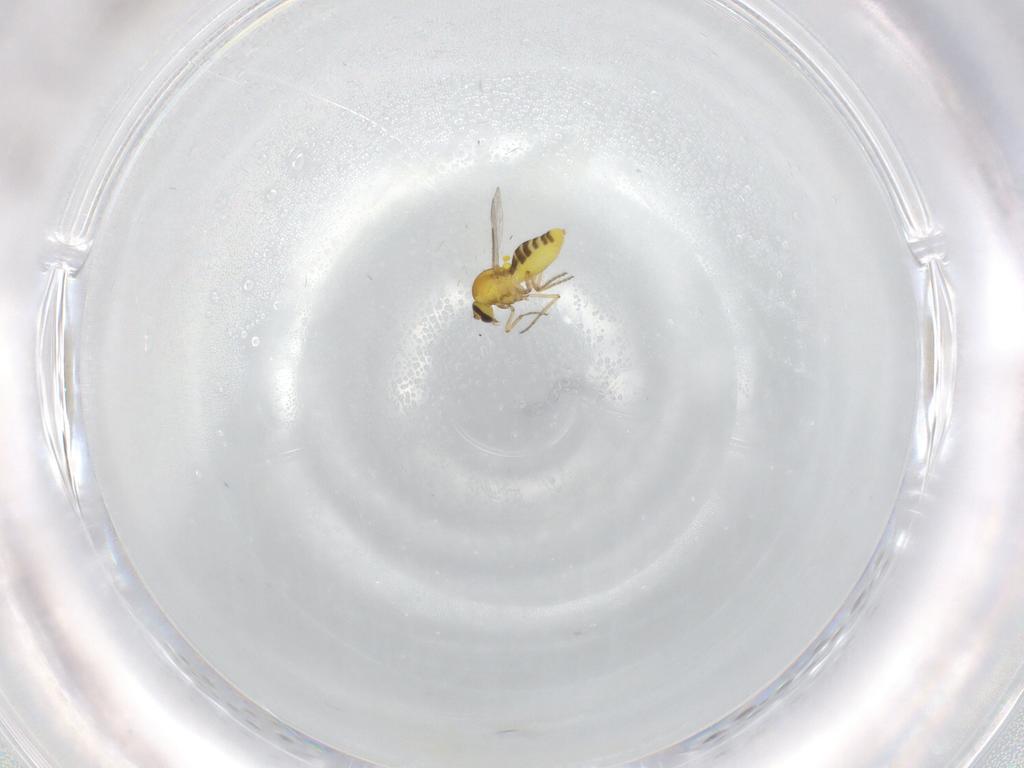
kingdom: Animalia
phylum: Arthropoda
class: Insecta
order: Diptera
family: Ceratopogonidae
